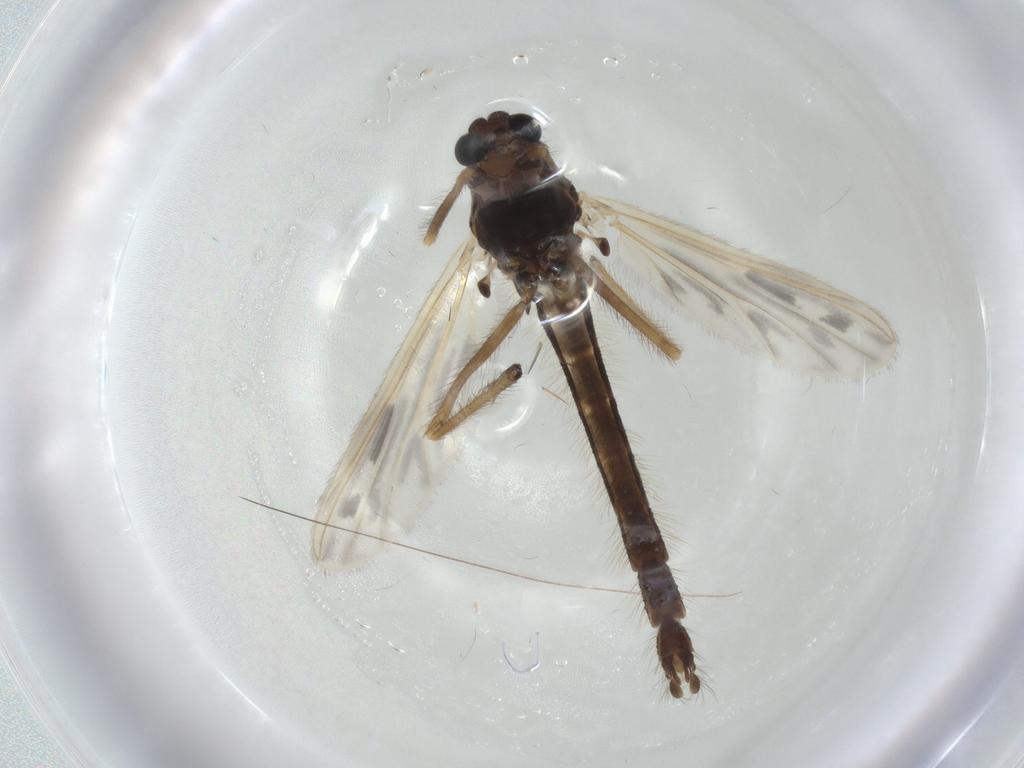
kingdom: Animalia
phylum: Arthropoda
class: Insecta
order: Diptera
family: Chironomidae
